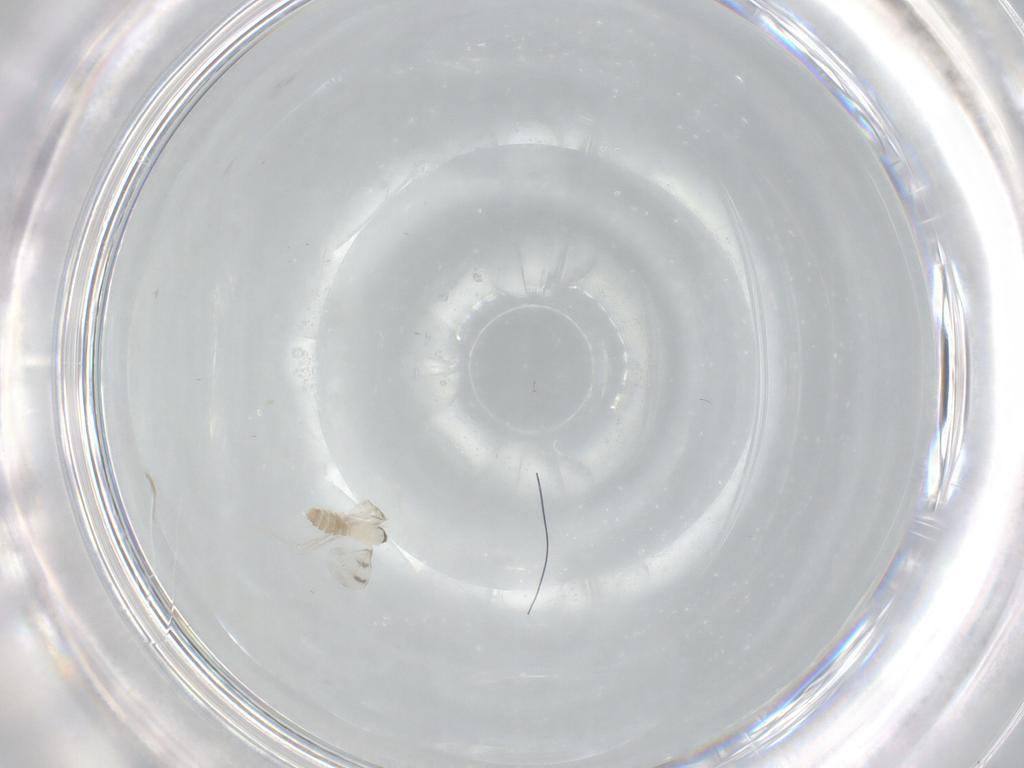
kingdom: Animalia
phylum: Arthropoda
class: Insecta
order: Diptera
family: Cecidomyiidae
